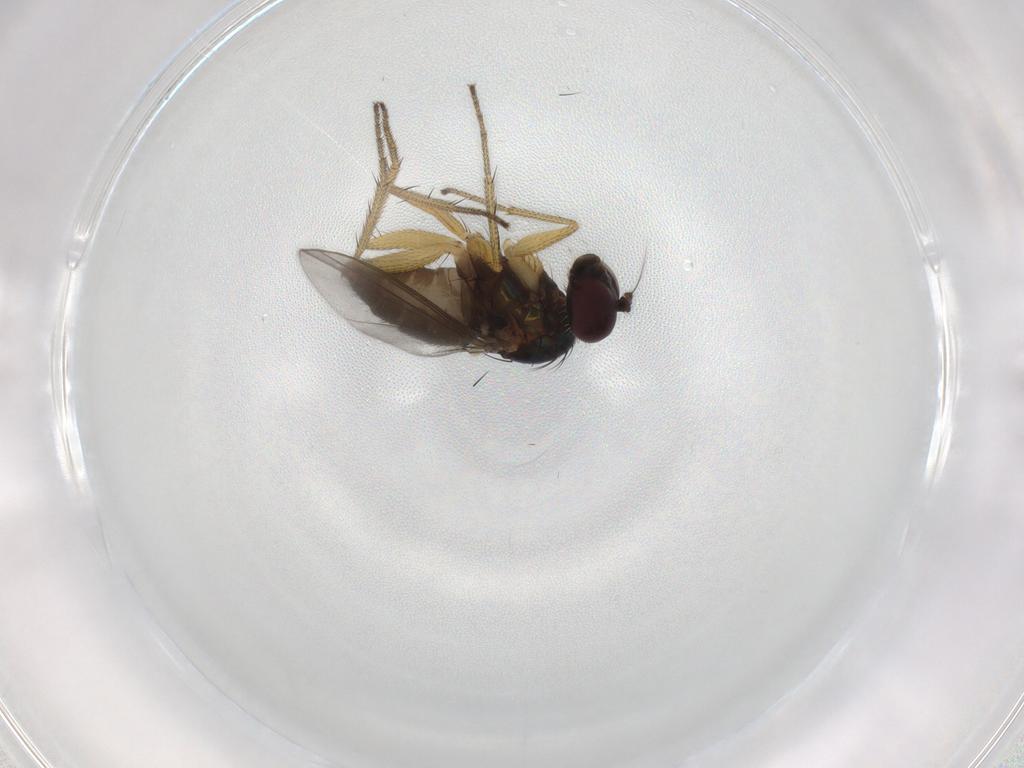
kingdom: Animalia
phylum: Arthropoda
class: Insecta
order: Diptera
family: Dolichopodidae
